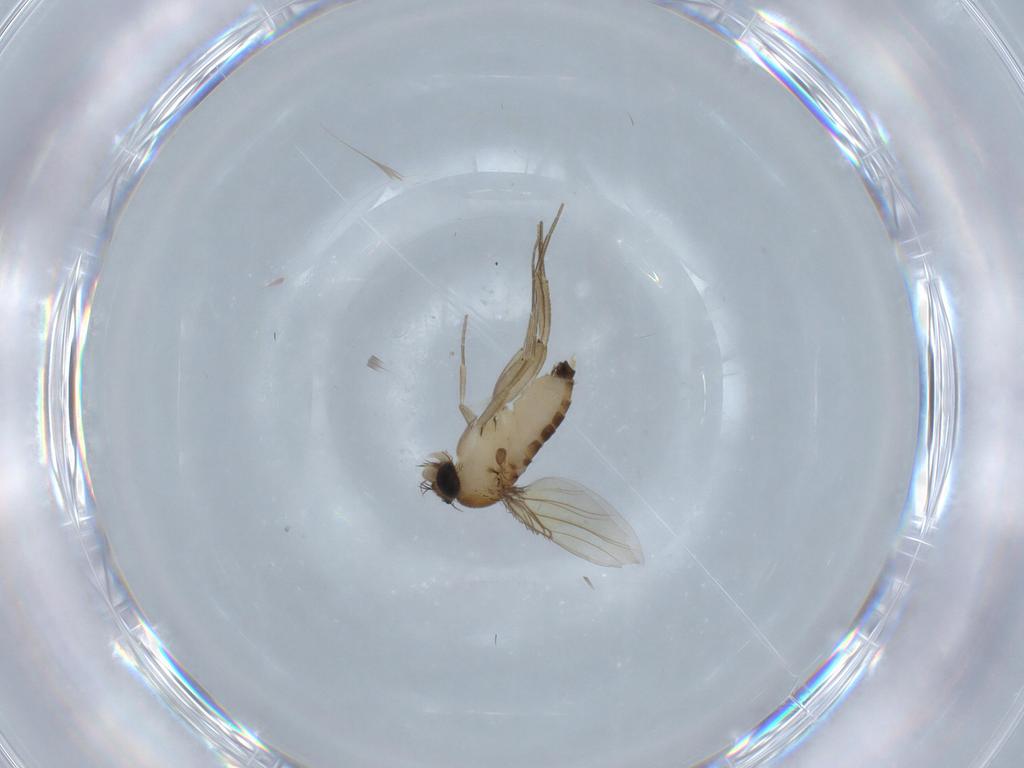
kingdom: Animalia
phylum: Arthropoda
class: Insecta
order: Diptera
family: Cecidomyiidae
